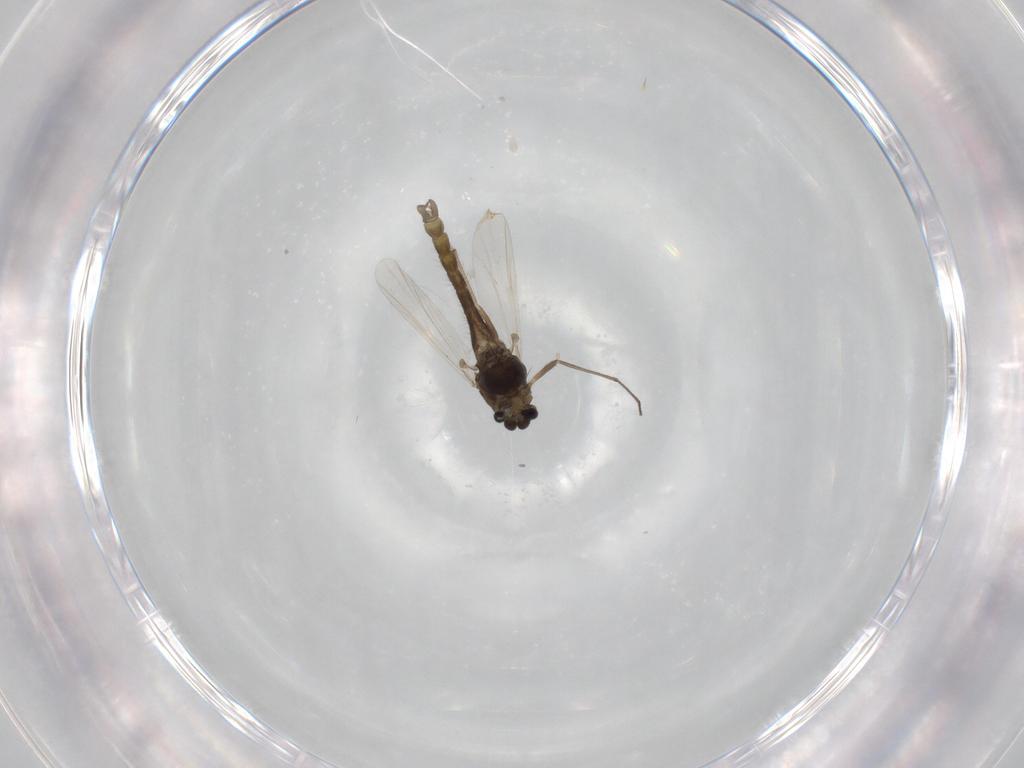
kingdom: Animalia
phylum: Arthropoda
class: Insecta
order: Diptera
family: Chironomidae
